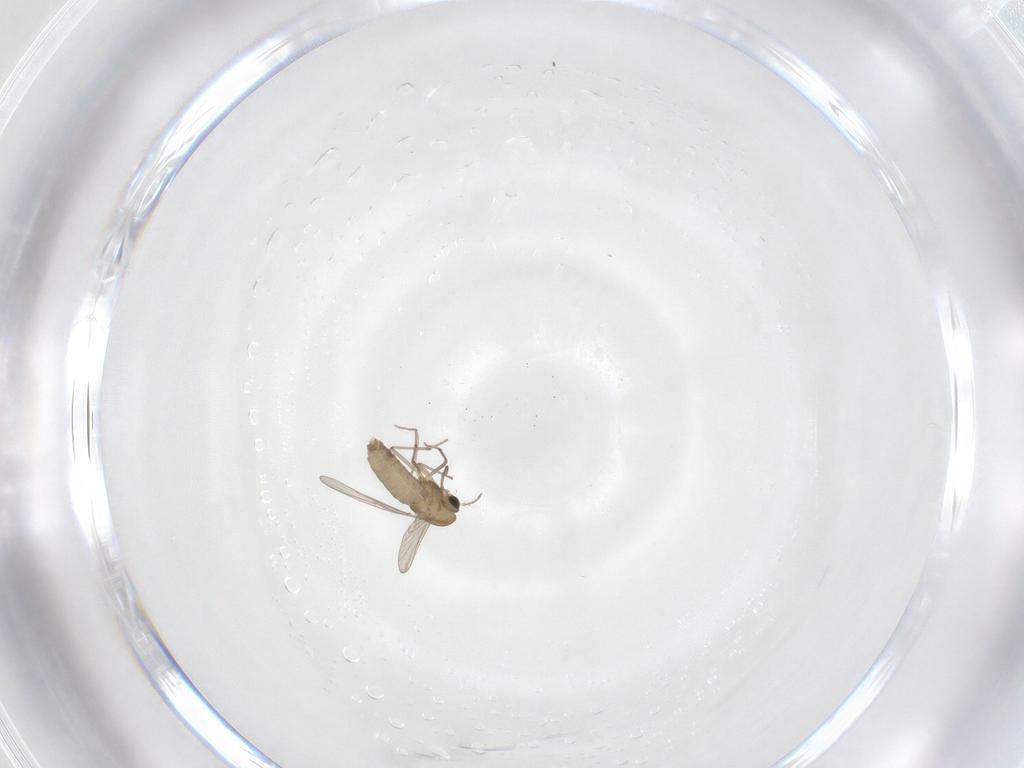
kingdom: Animalia
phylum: Arthropoda
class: Insecta
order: Diptera
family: Chironomidae
